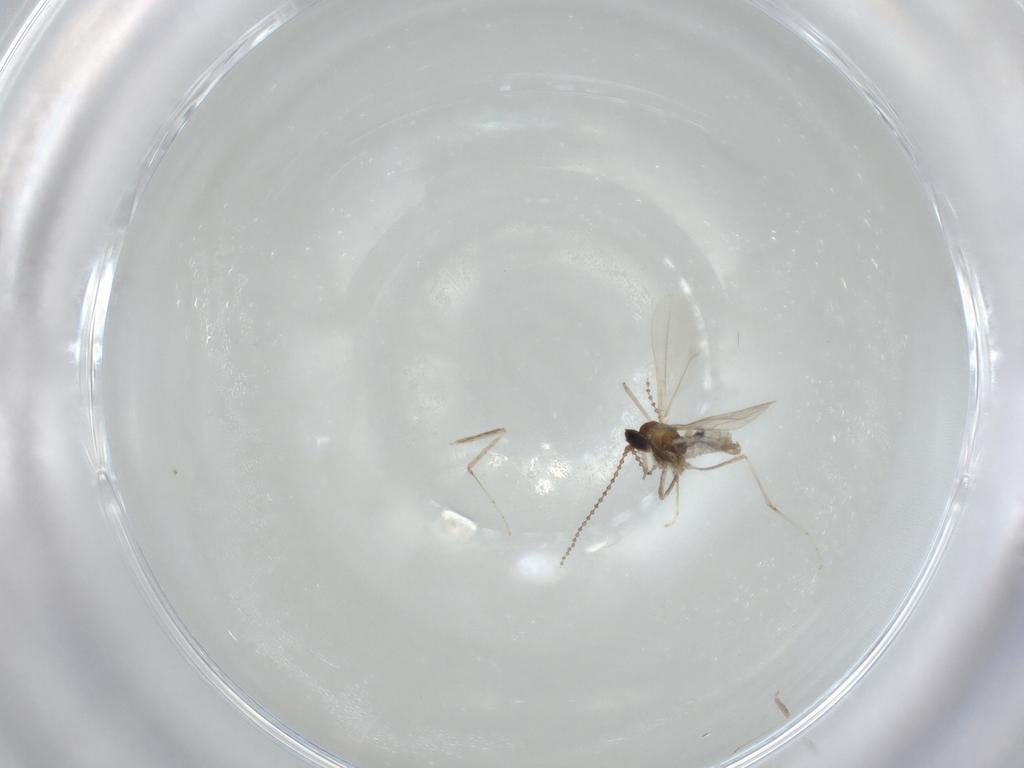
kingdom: Animalia
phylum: Arthropoda
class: Insecta
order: Diptera
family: Cecidomyiidae
